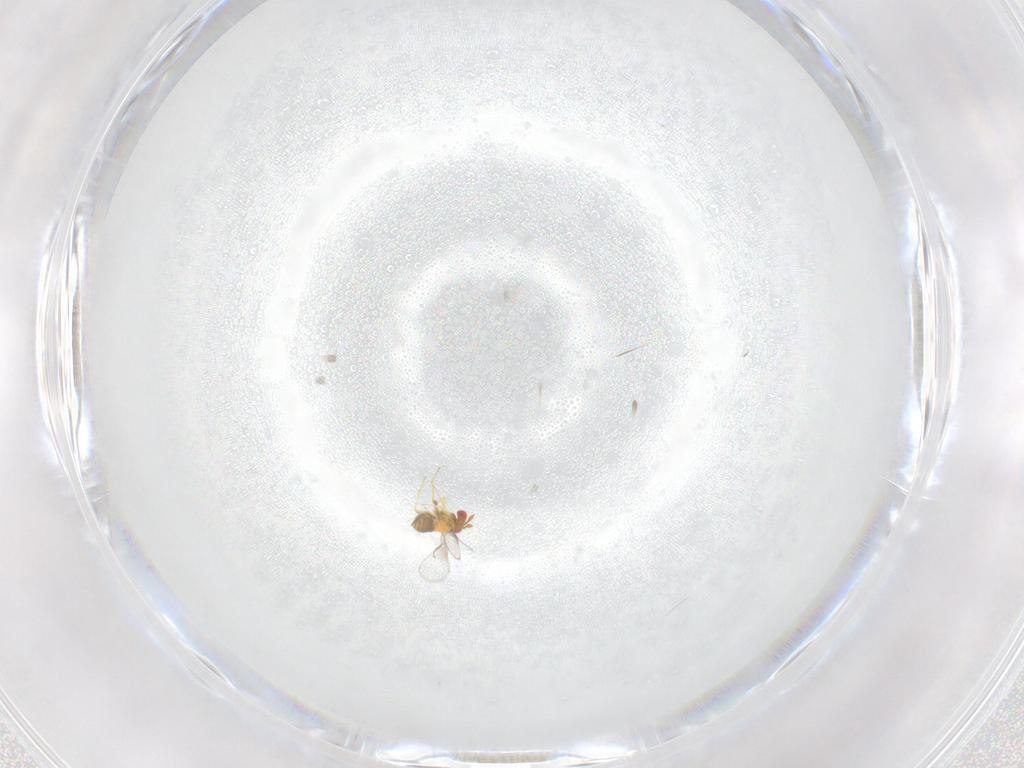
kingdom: Animalia
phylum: Arthropoda
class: Insecta
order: Hymenoptera
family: Trichogrammatidae
